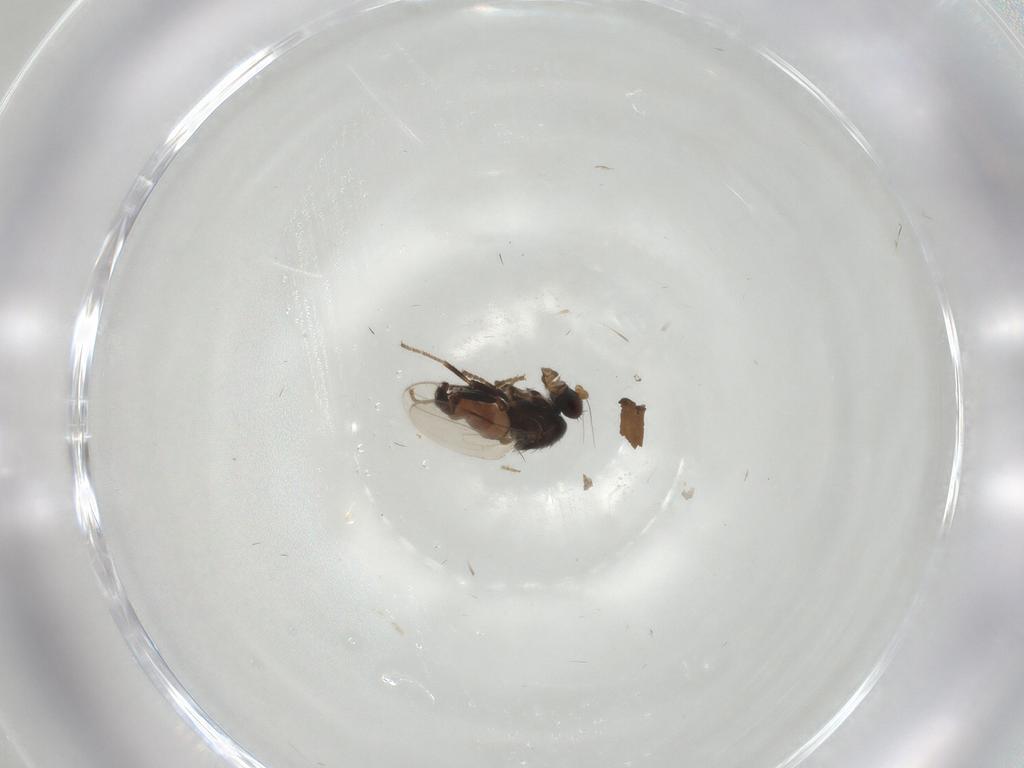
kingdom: Animalia
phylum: Arthropoda
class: Insecta
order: Diptera
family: Sphaeroceridae
